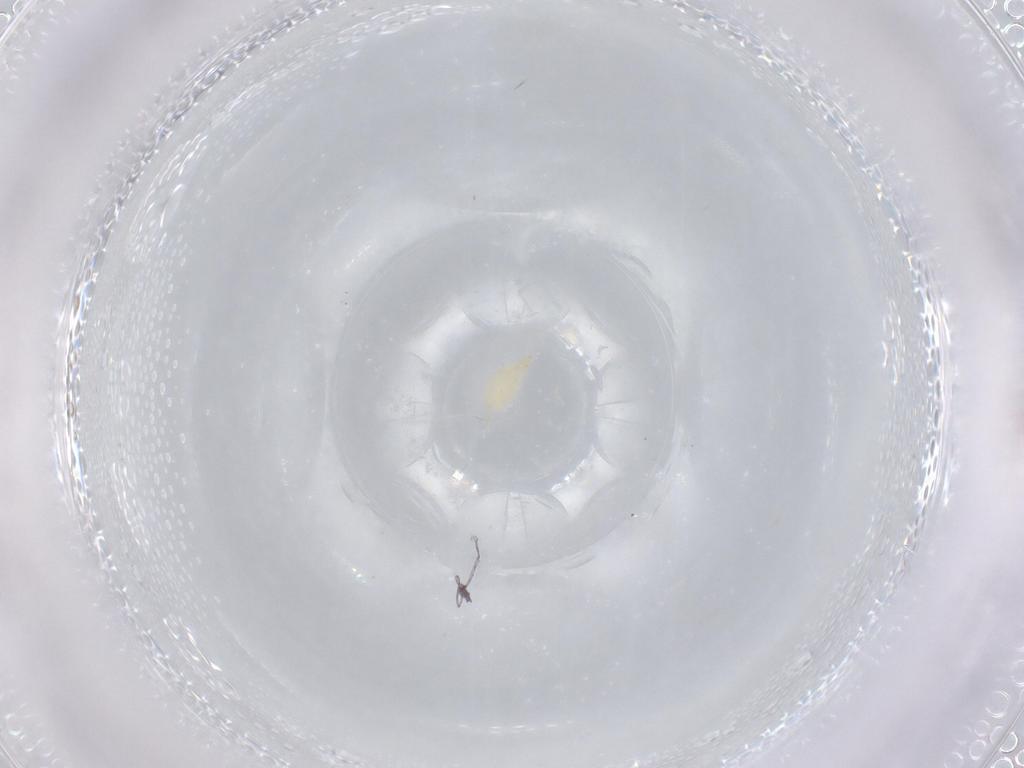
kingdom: Animalia
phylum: Arthropoda
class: Arachnida
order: Trombidiformes
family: Erythraeidae
